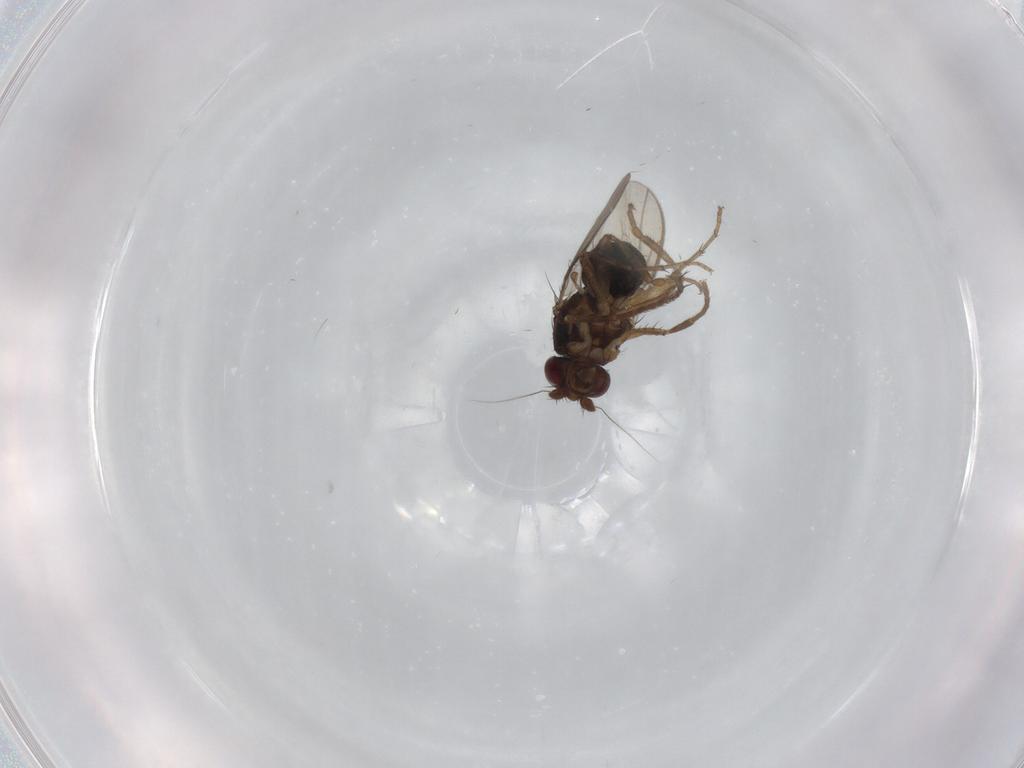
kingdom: Animalia
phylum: Arthropoda
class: Insecta
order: Diptera
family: Sphaeroceridae
